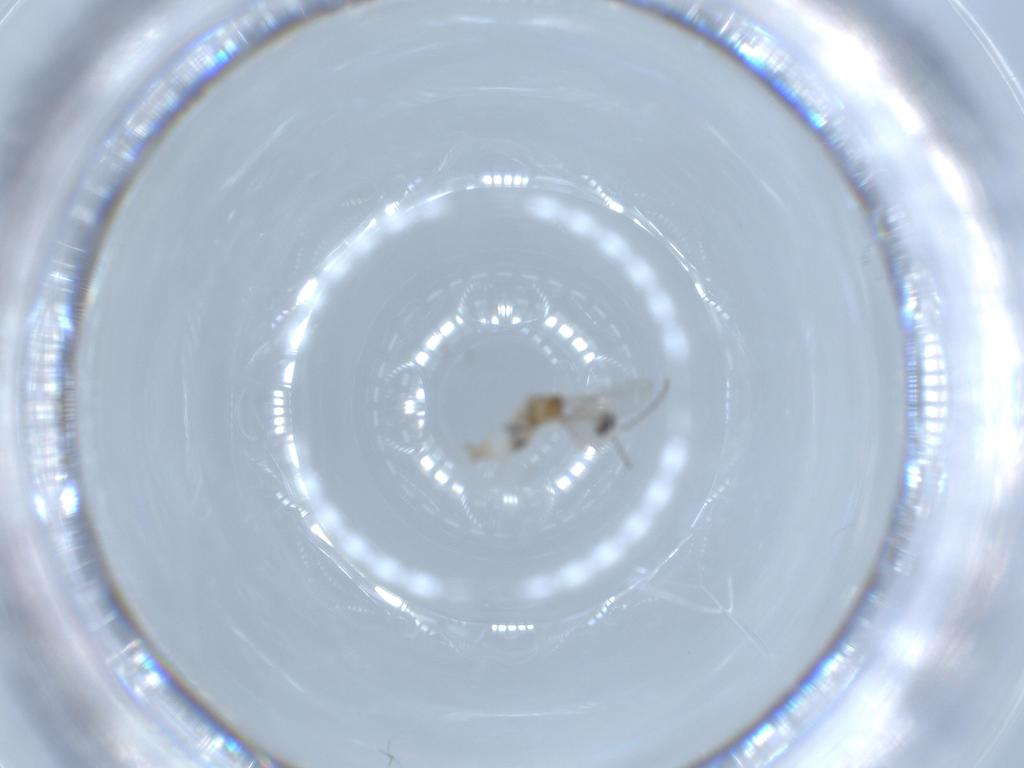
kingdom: Animalia
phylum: Arthropoda
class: Insecta
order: Diptera
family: Cecidomyiidae
